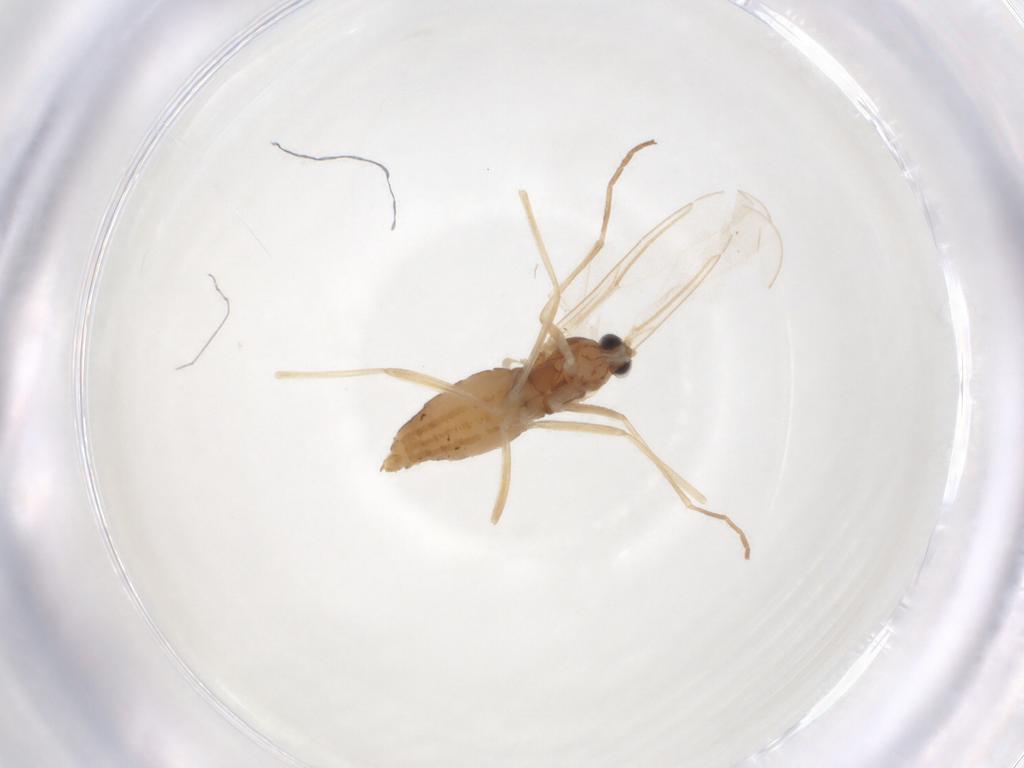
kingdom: Animalia
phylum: Arthropoda
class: Insecta
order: Diptera
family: Cecidomyiidae
